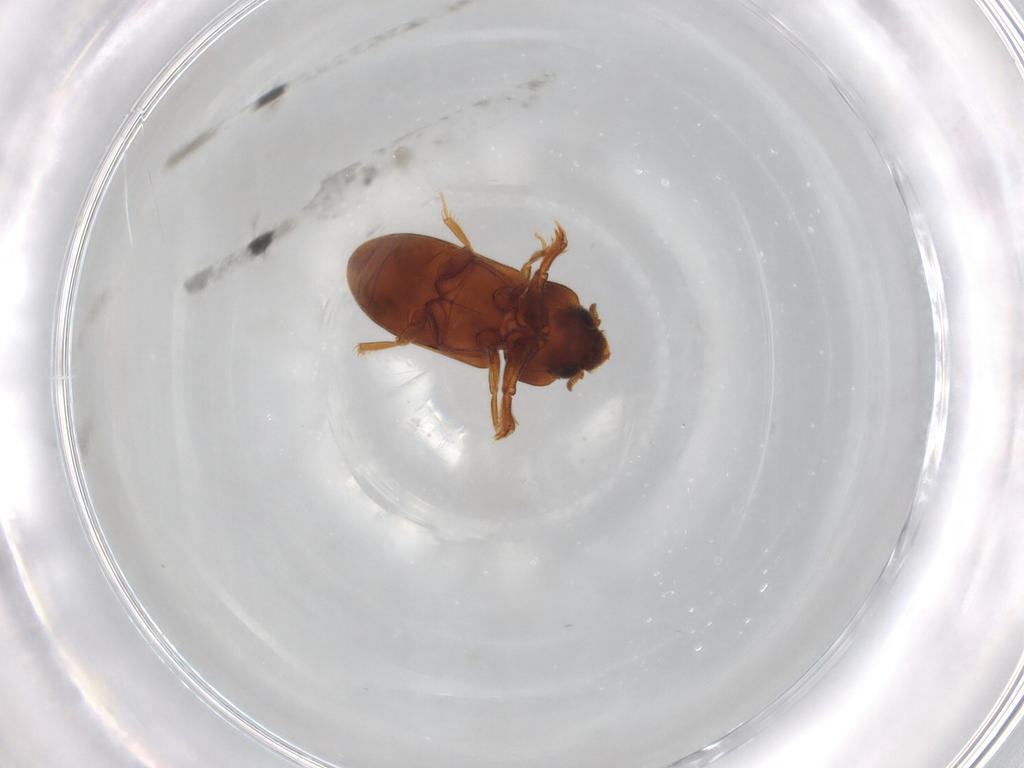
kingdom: Animalia
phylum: Arthropoda
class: Insecta
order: Coleoptera
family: Heteroceridae
